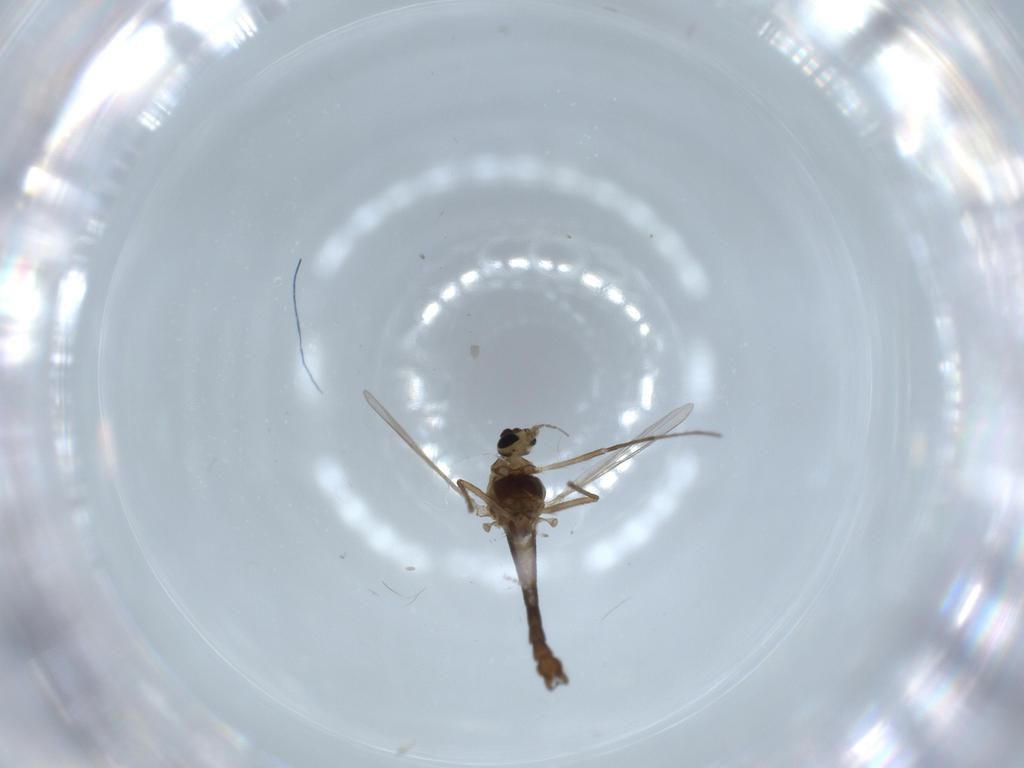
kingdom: Animalia
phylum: Arthropoda
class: Insecta
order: Diptera
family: Chironomidae
